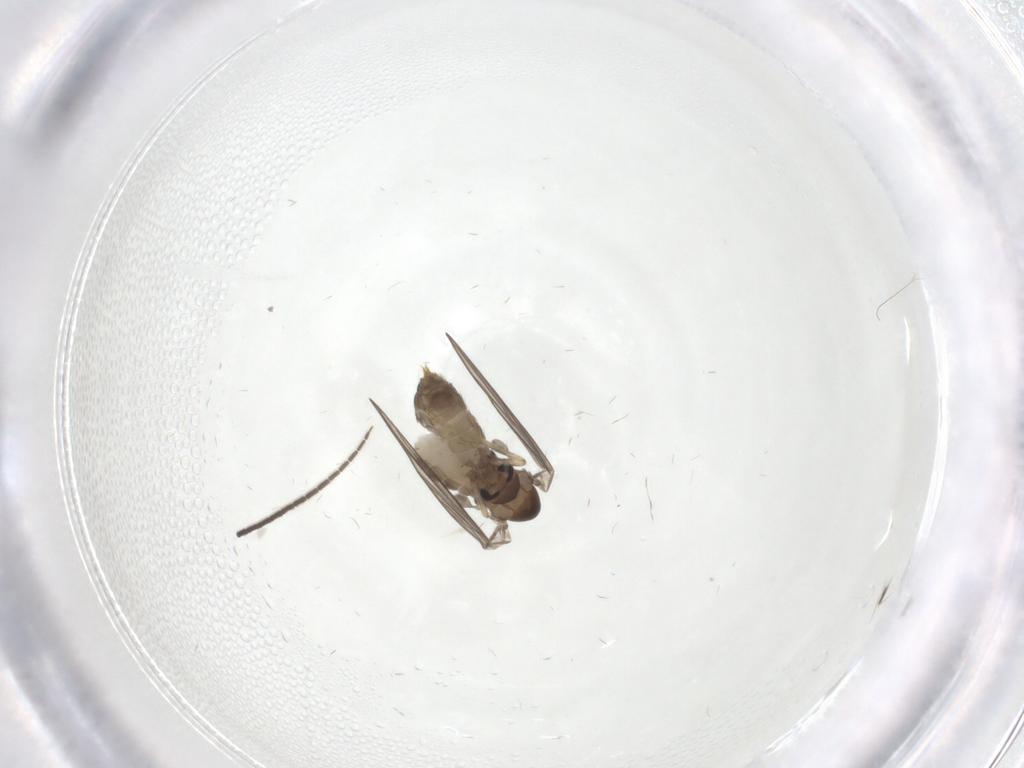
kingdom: Animalia
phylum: Arthropoda
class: Insecta
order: Diptera
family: Psychodidae
